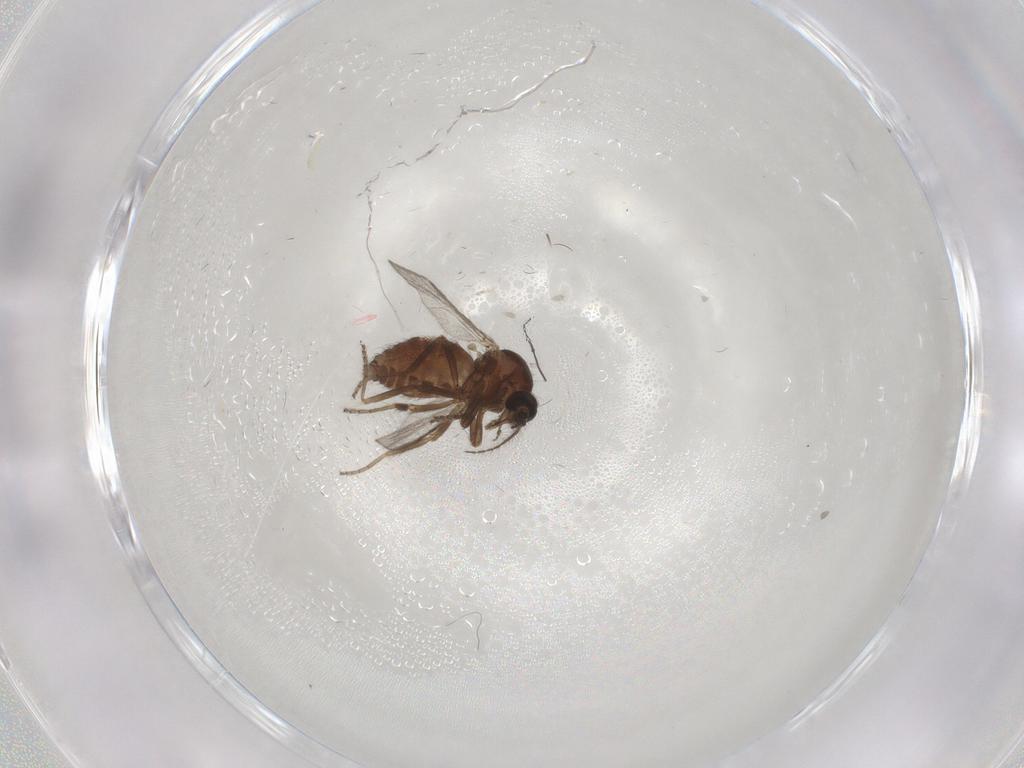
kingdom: Animalia
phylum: Arthropoda
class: Insecta
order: Diptera
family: Ceratopogonidae
